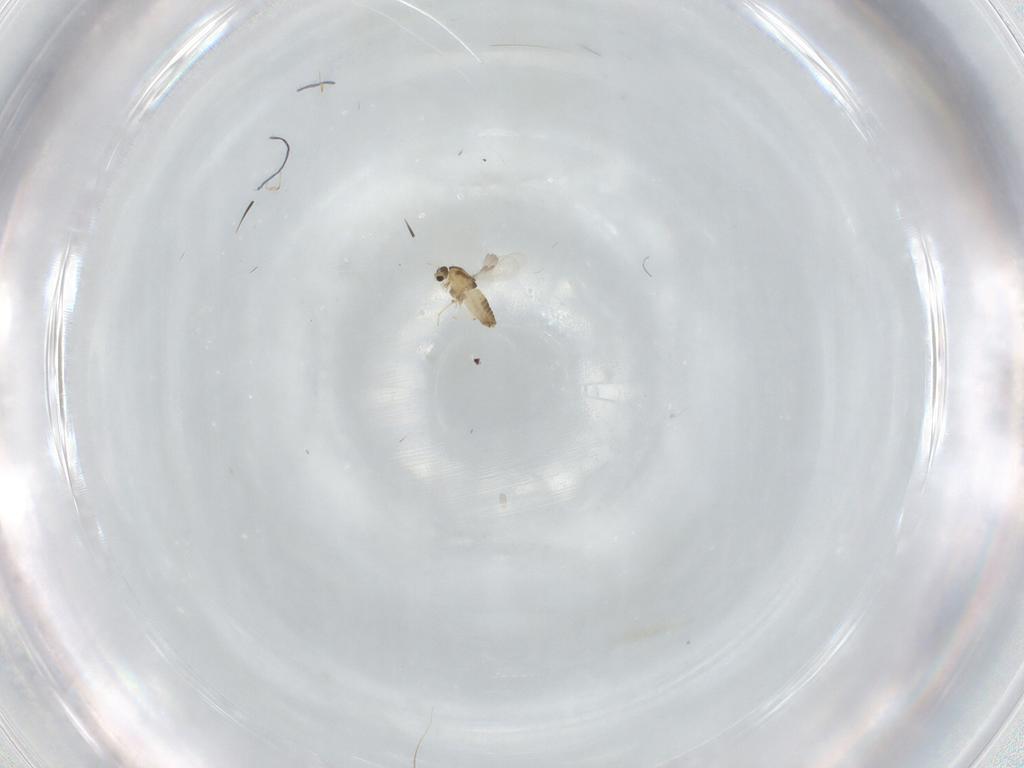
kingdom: Animalia
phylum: Arthropoda
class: Insecta
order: Diptera
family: Chironomidae
